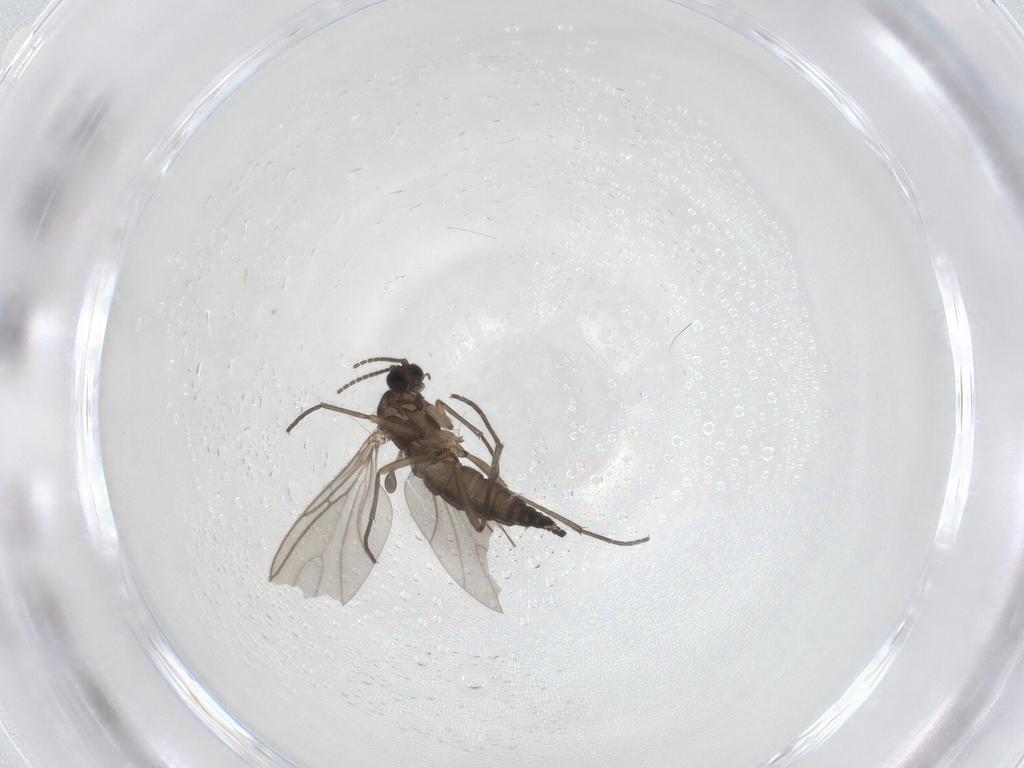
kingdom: Animalia
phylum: Arthropoda
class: Insecta
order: Diptera
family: Sciaridae
